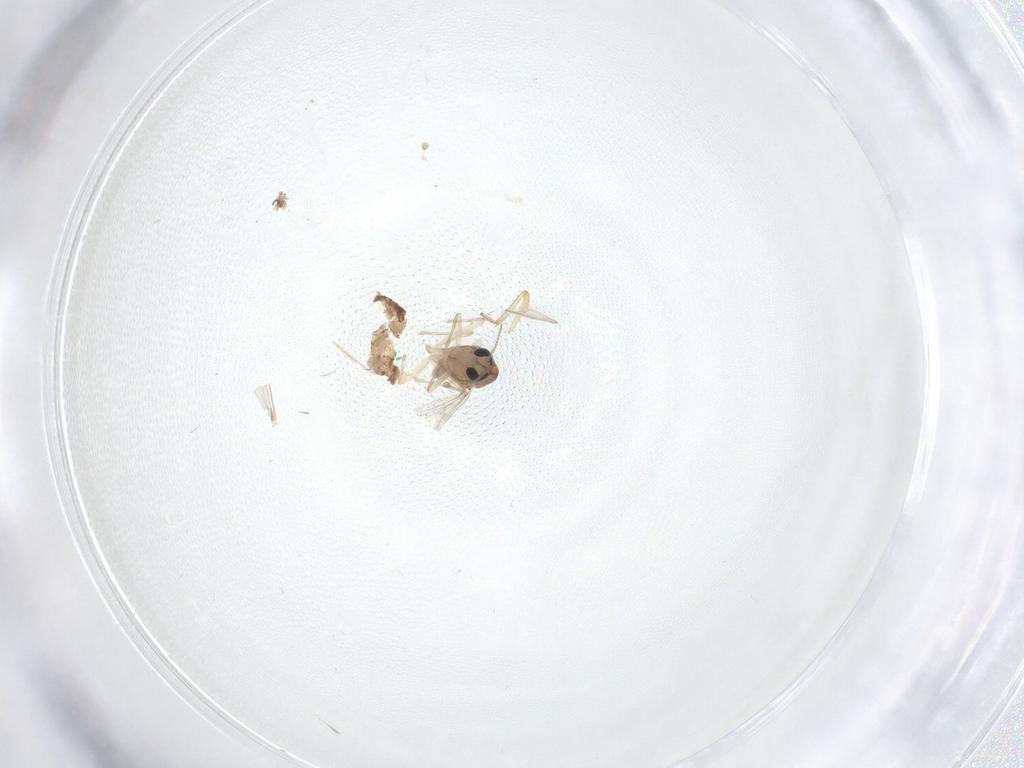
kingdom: Animalia
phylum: Arthropoda
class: Insecta
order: Diptera
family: Chironomidae
